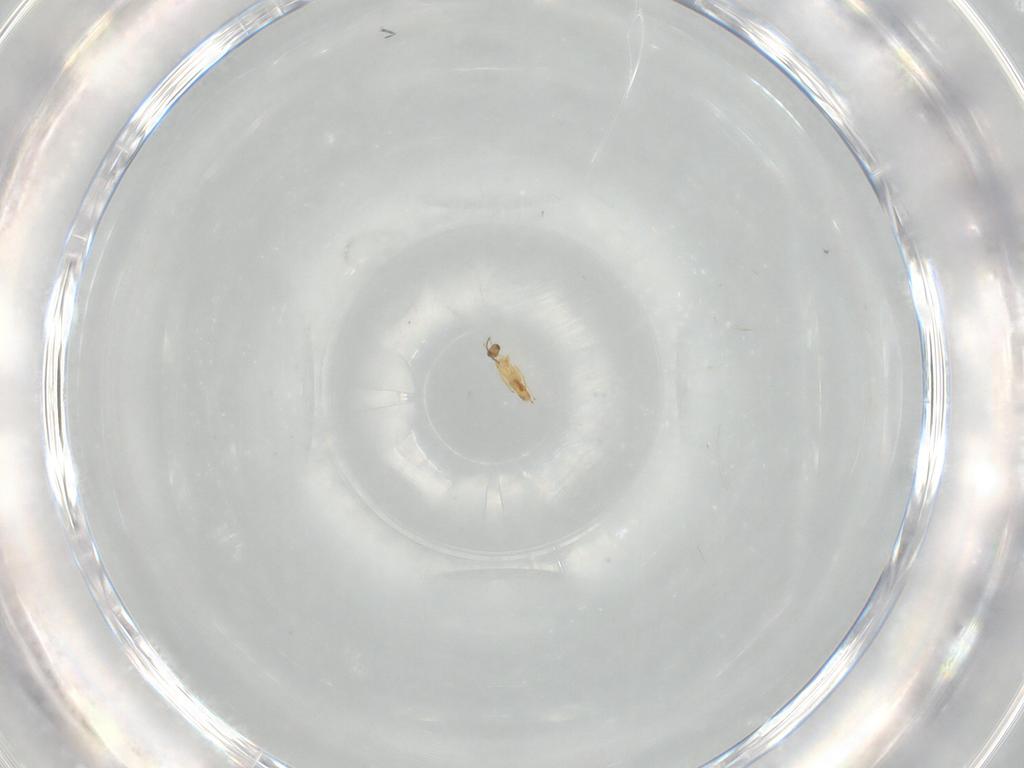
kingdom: Animalia
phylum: Arthropoda
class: Insecta
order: Hymenoptera
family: Mymaridae
